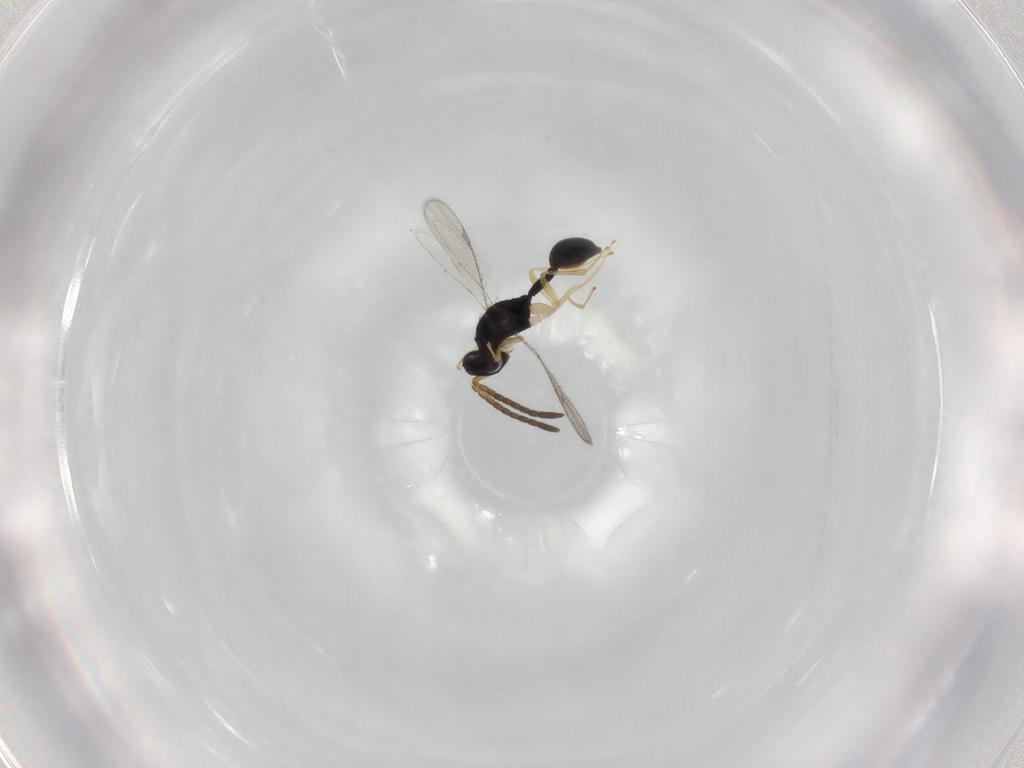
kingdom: Animalia
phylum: Arthropoda
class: Insecta
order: Hymenoptera
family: Diparidae
